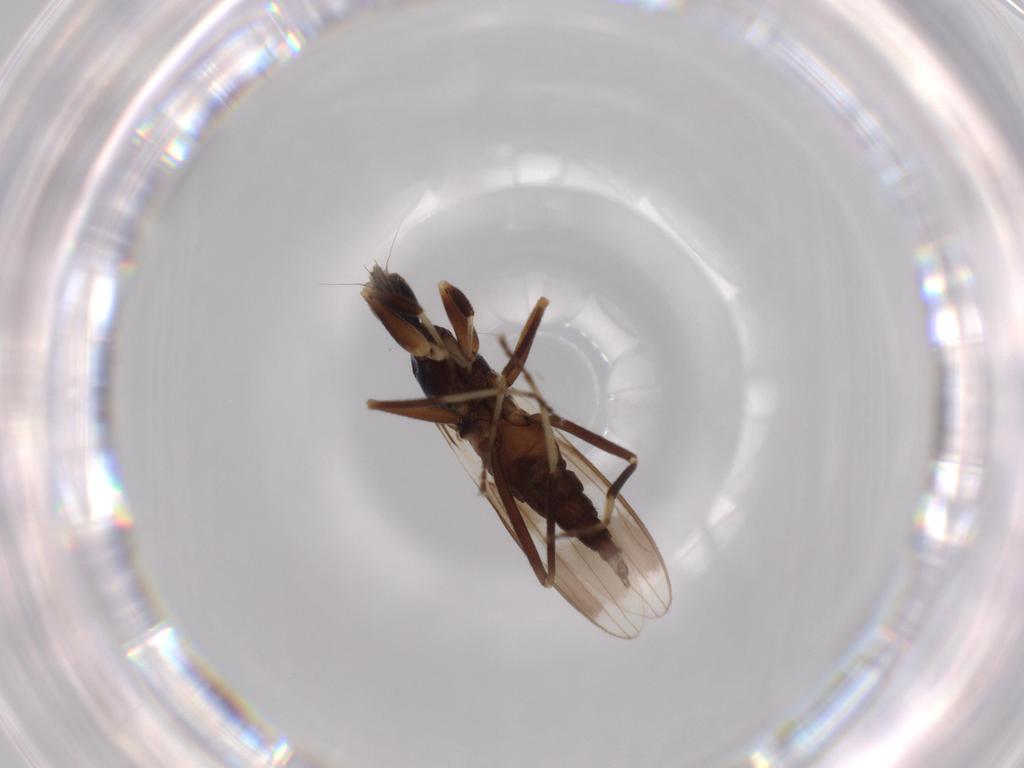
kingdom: Animalia
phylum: Arthropoda
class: Insecta
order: Diptera
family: Hybotidae
